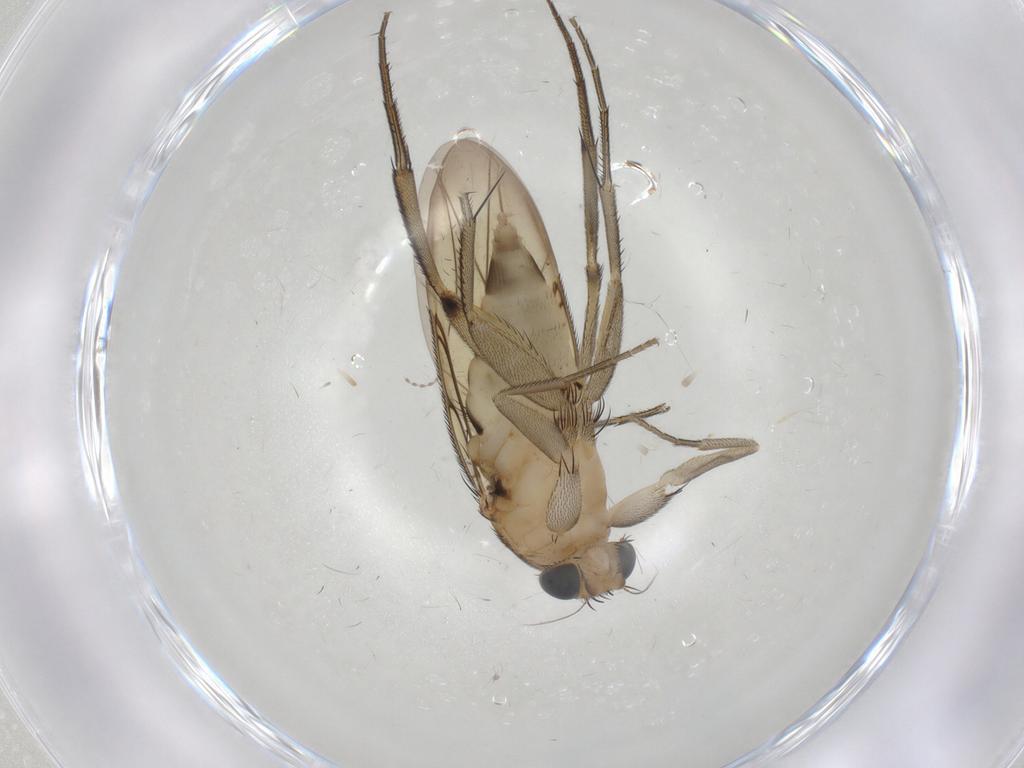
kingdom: Animalia
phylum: Arthropoda
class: Insecta
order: Diptera
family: Phoridae
